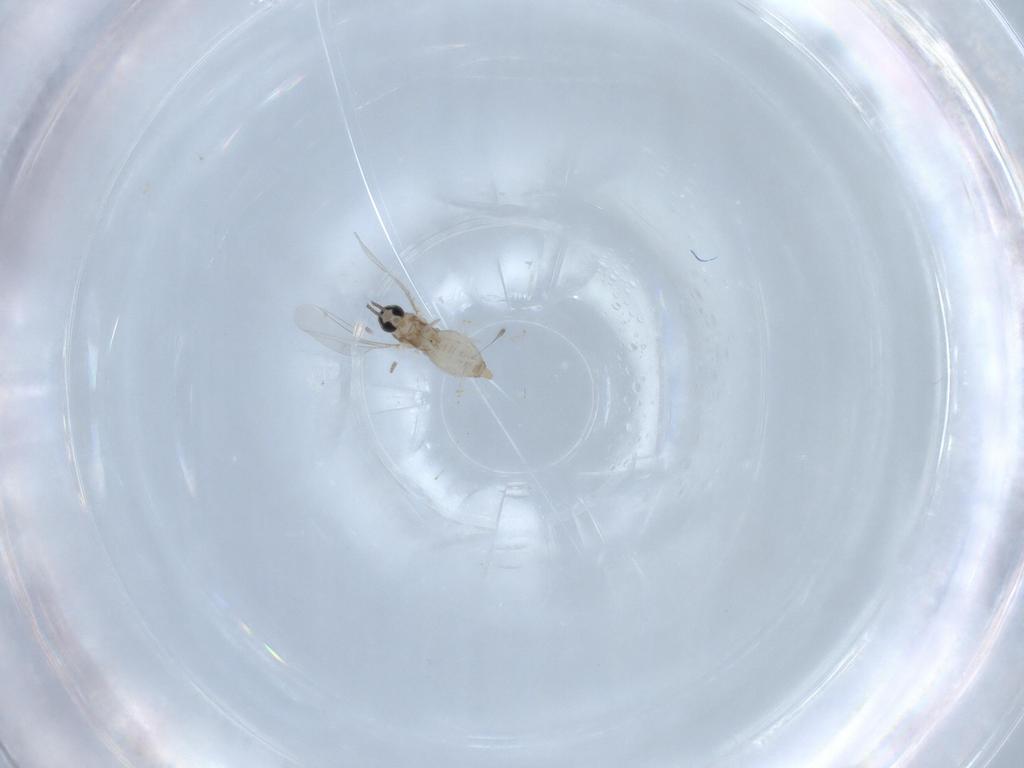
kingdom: Animalia
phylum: Arthropoda
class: Insecta
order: Diptera
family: Cecidomyiidae
